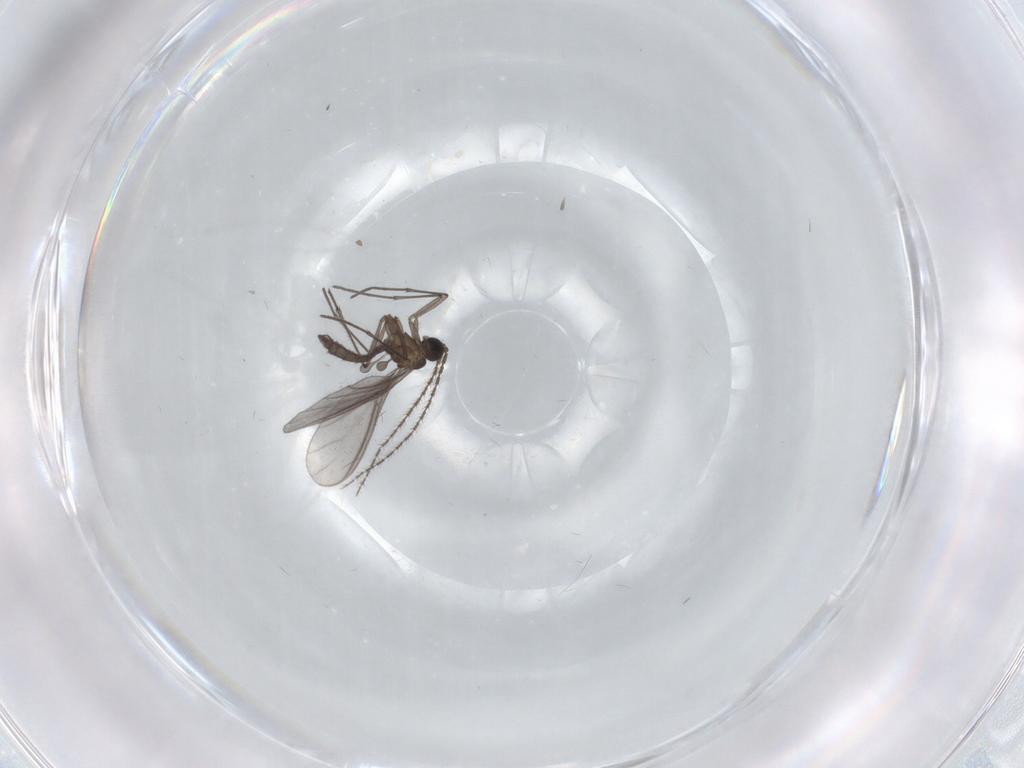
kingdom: Animalia
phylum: Arthropoda
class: Insecta
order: Diptera
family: Sciaridae
